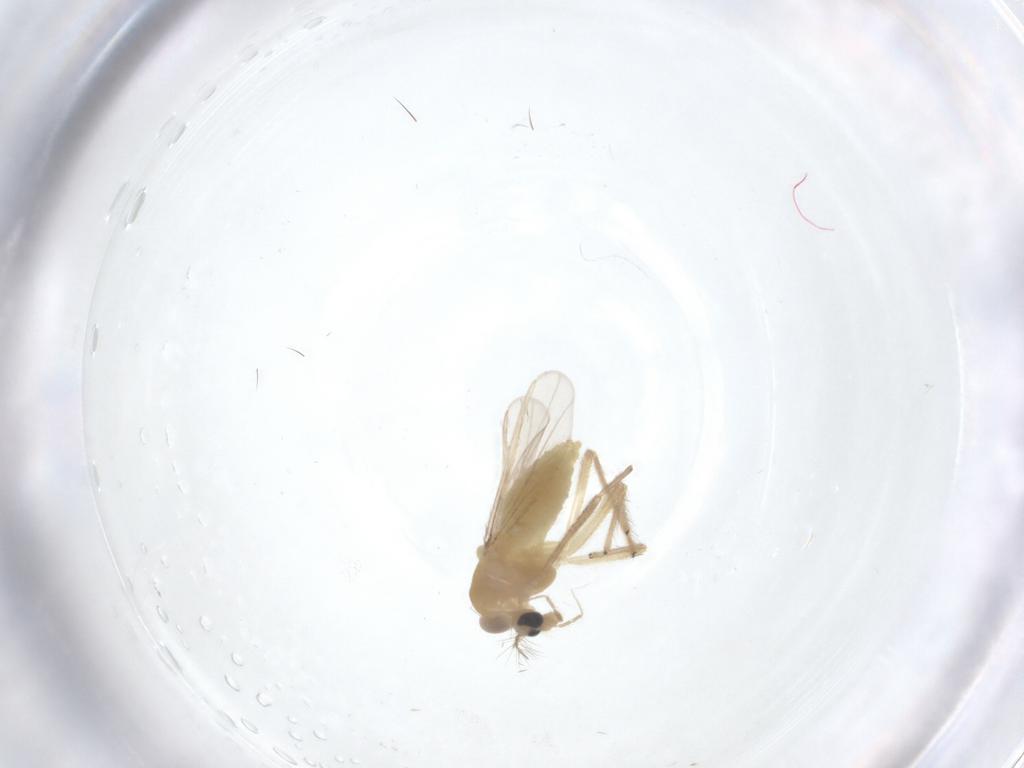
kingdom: Animalia
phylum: Arthropoda
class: Insecta
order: Diptera
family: Chironomidae
